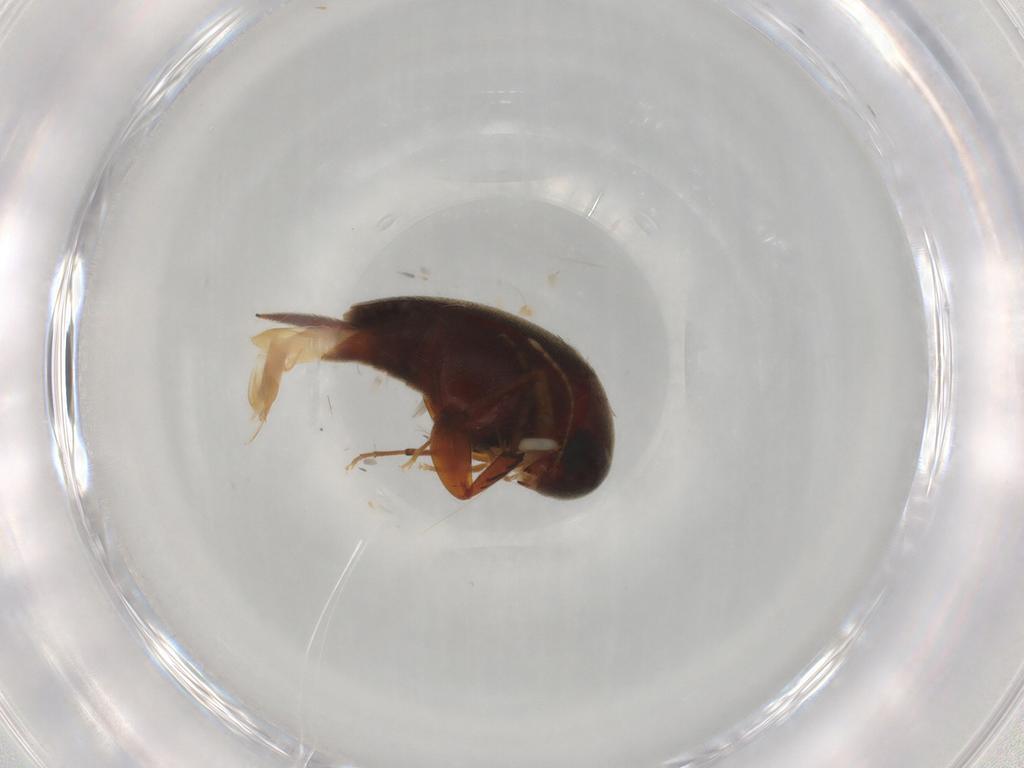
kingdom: Animalia
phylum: Arthropoda
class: Insecta
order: Coleoptera
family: Mordellidae
